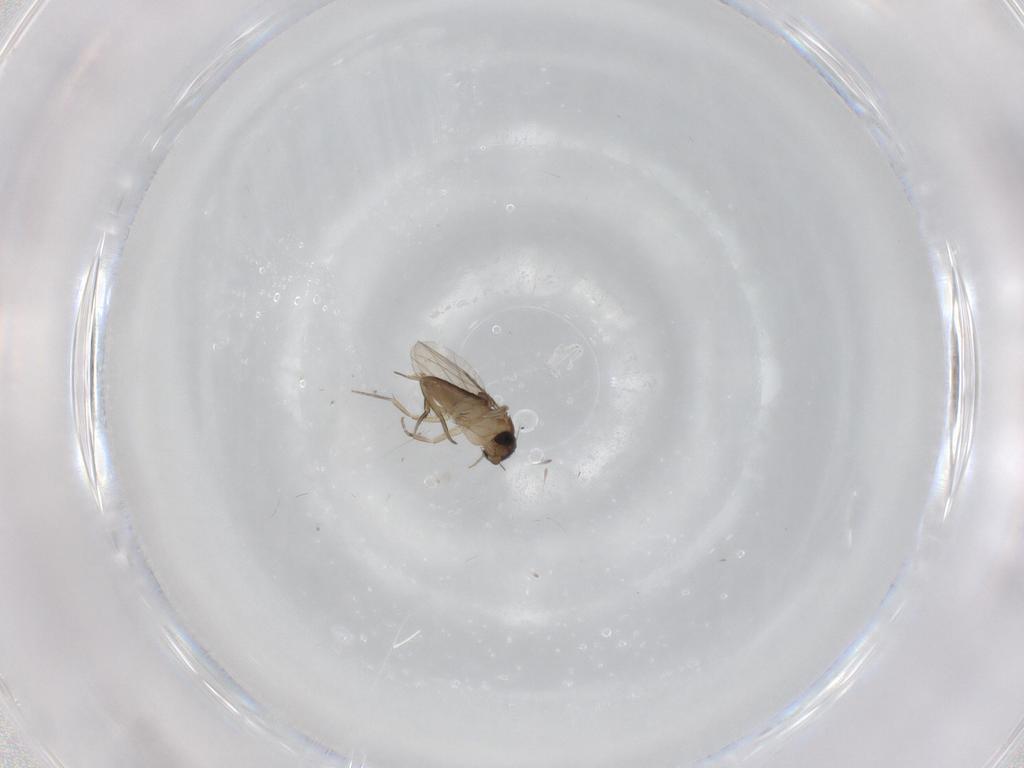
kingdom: Animalia
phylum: Arthropoda
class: Insecta
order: Diptera
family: Phoridae
